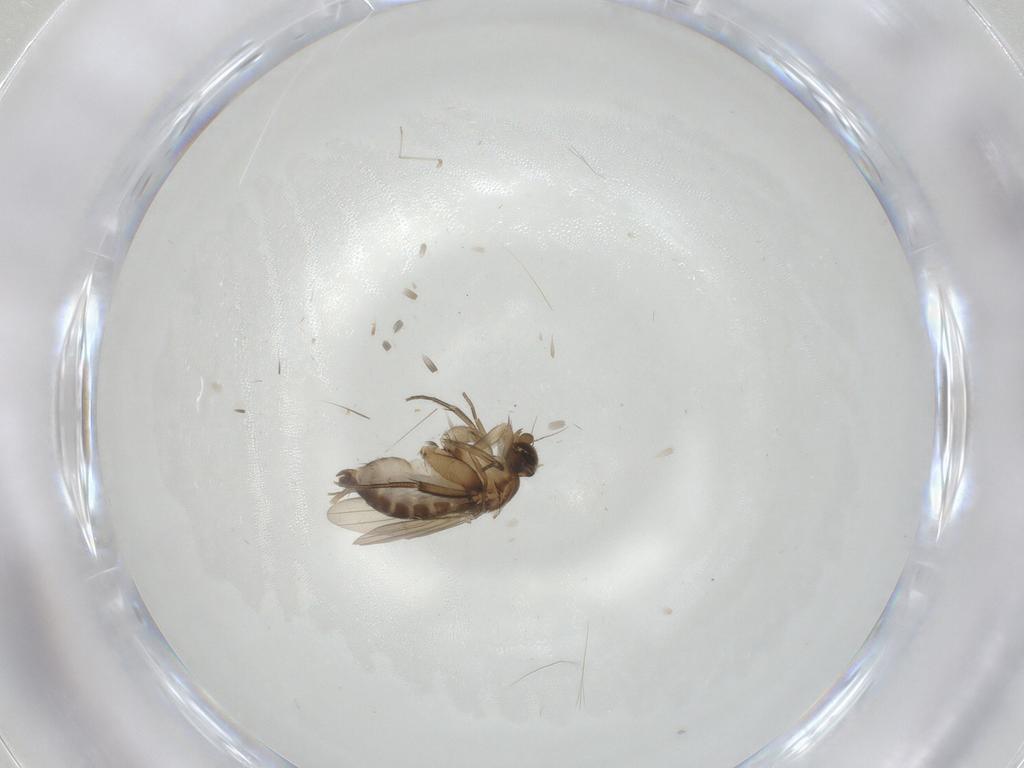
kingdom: Animalia
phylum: Arthropoda
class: Insecta
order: Diptera
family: Phoridae
